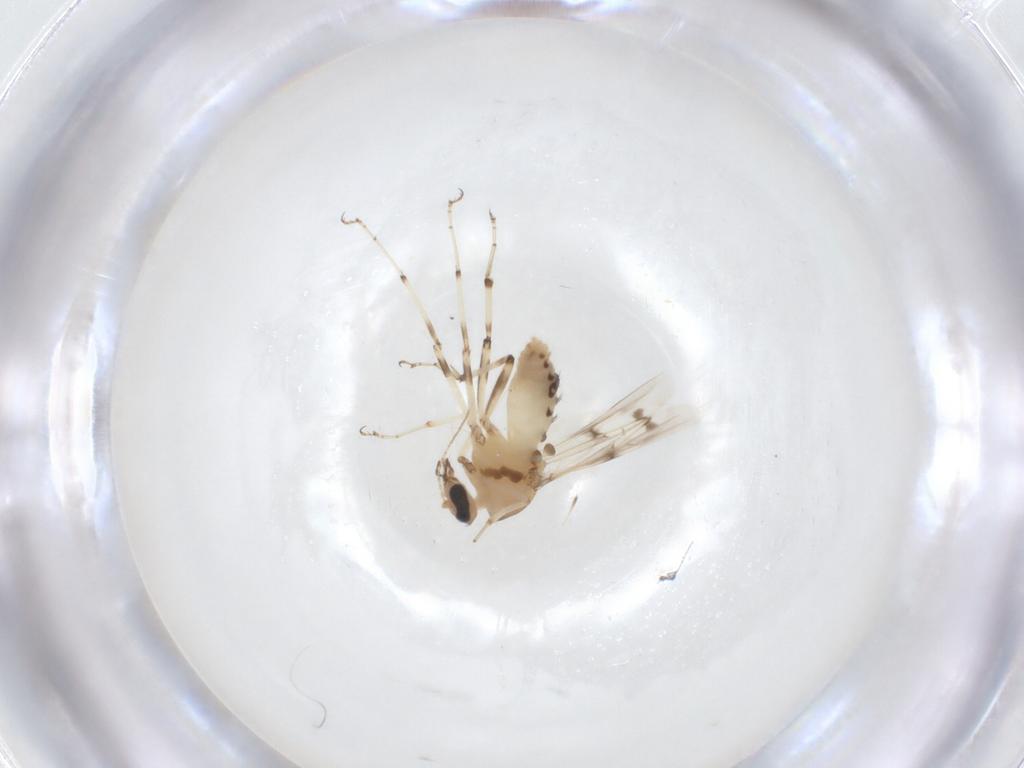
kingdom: Animalia
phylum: Arthropoda
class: Insecta
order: Diptera
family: Ceratopogonidae
